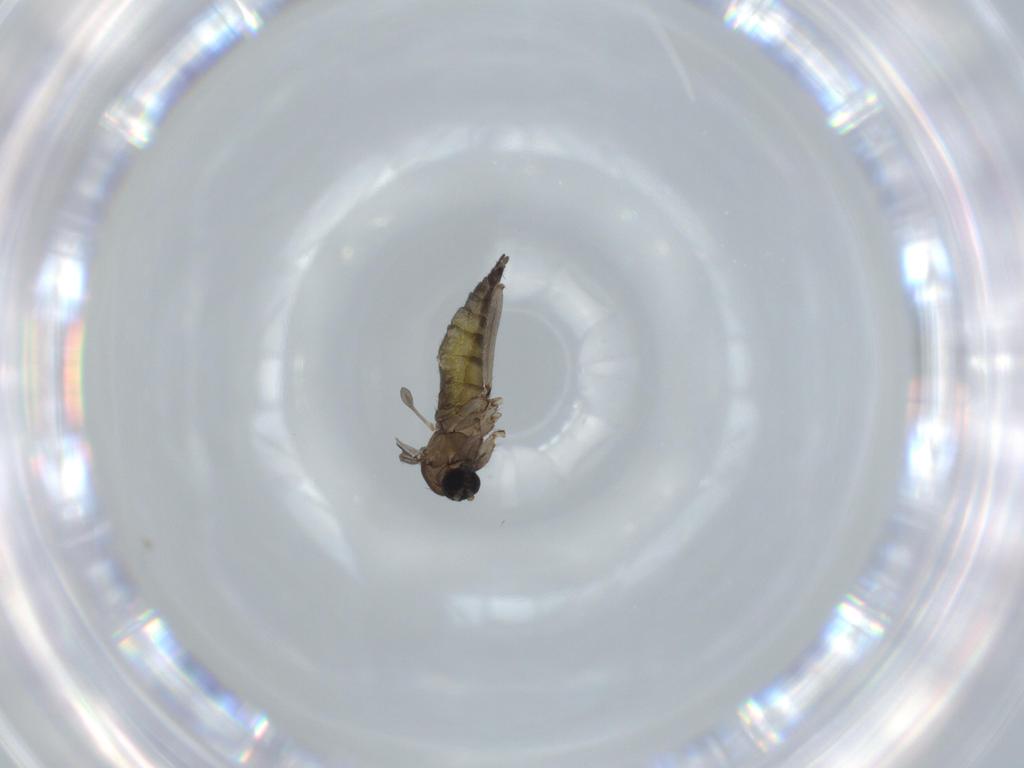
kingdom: Animalia
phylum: Arthropoda
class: Insecta
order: Diptera
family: Sciaridae
